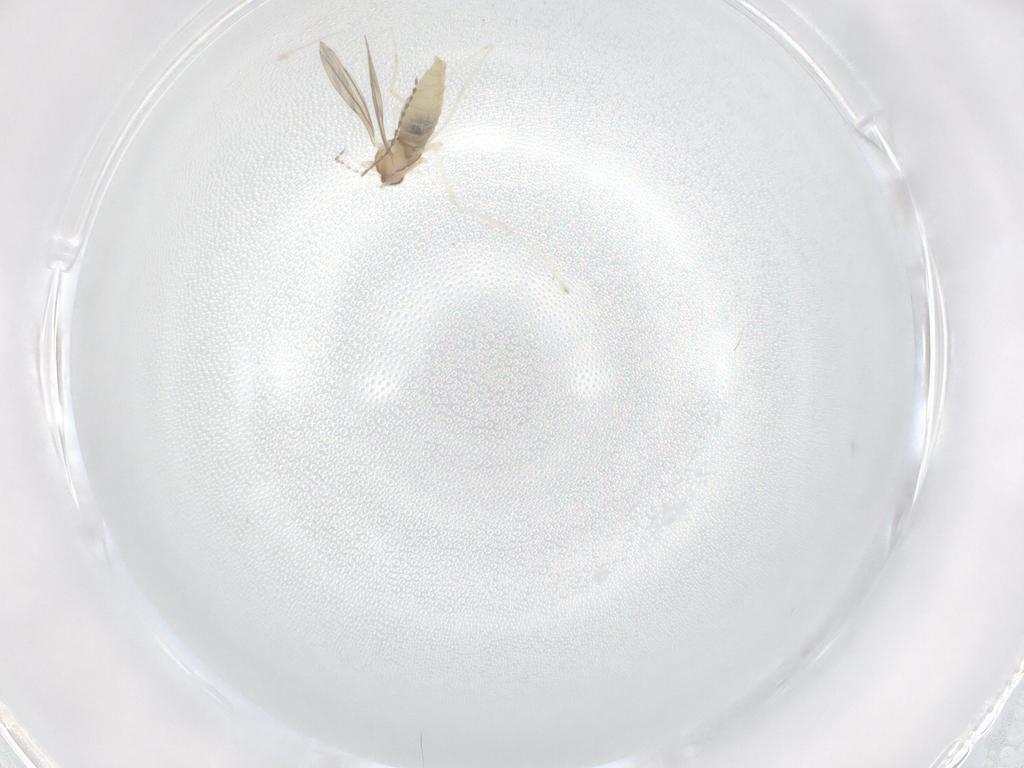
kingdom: Animalia
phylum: Arthropoda
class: Insecta
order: Diptera
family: Cecidomyiidae
